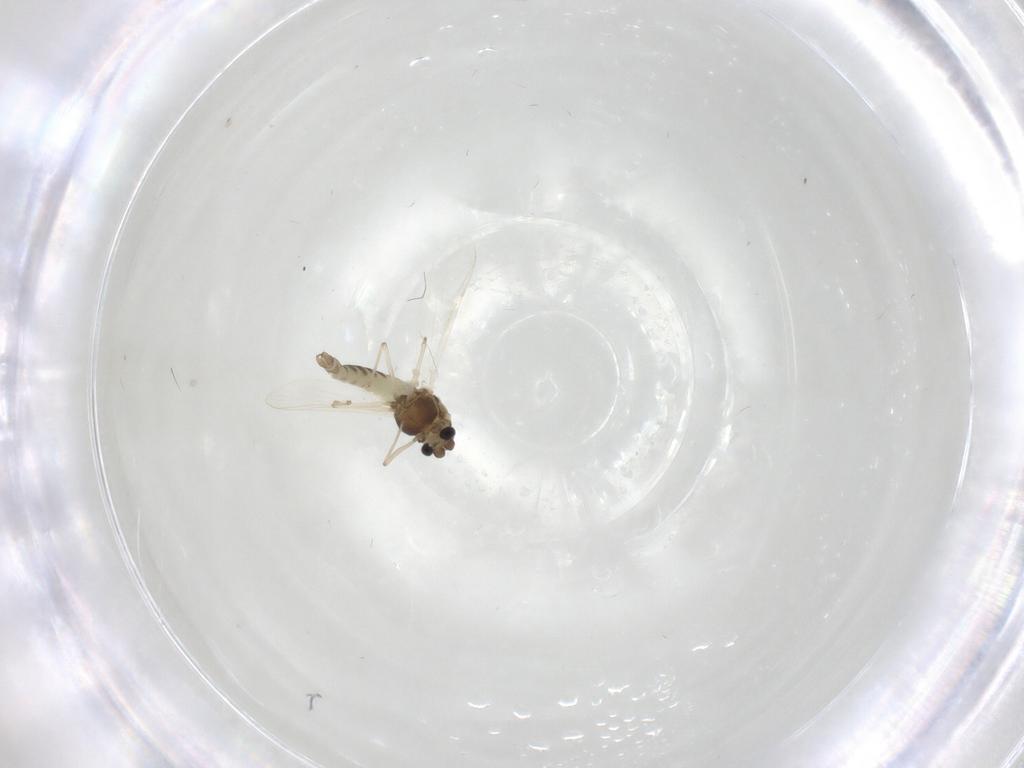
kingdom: Animalia
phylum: Arthropoda
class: Insecta
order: Diptera
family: Chironomidae
